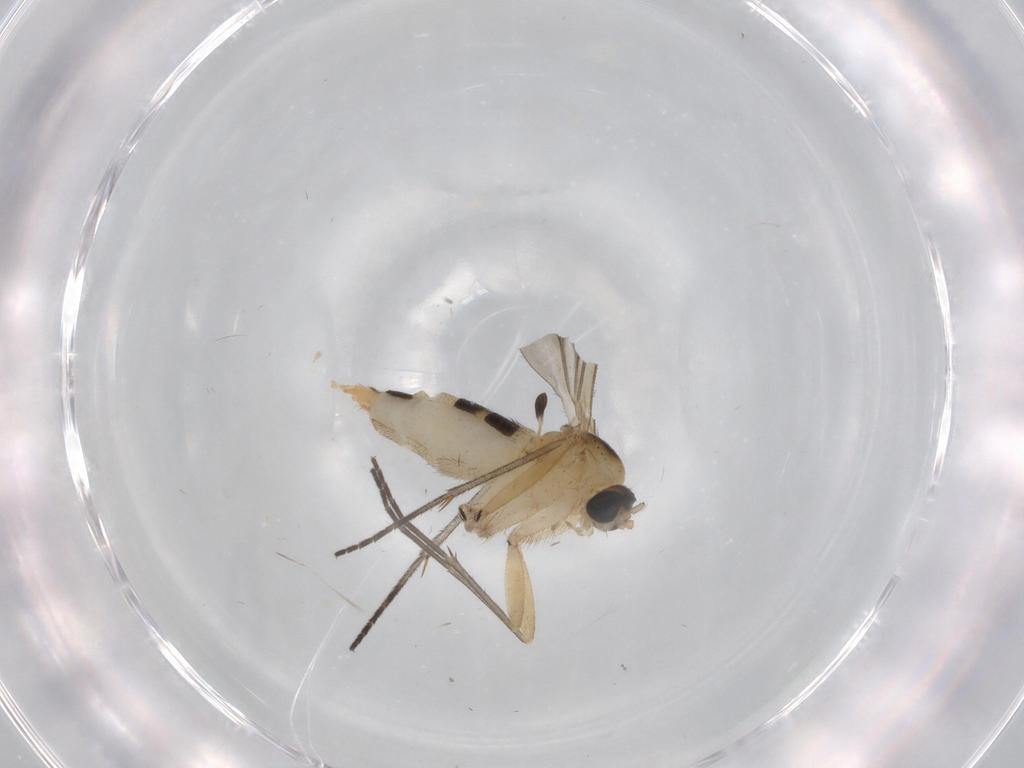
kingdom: Animalia
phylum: Arthropoda
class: Insecta
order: Diptera
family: Sciaridae
